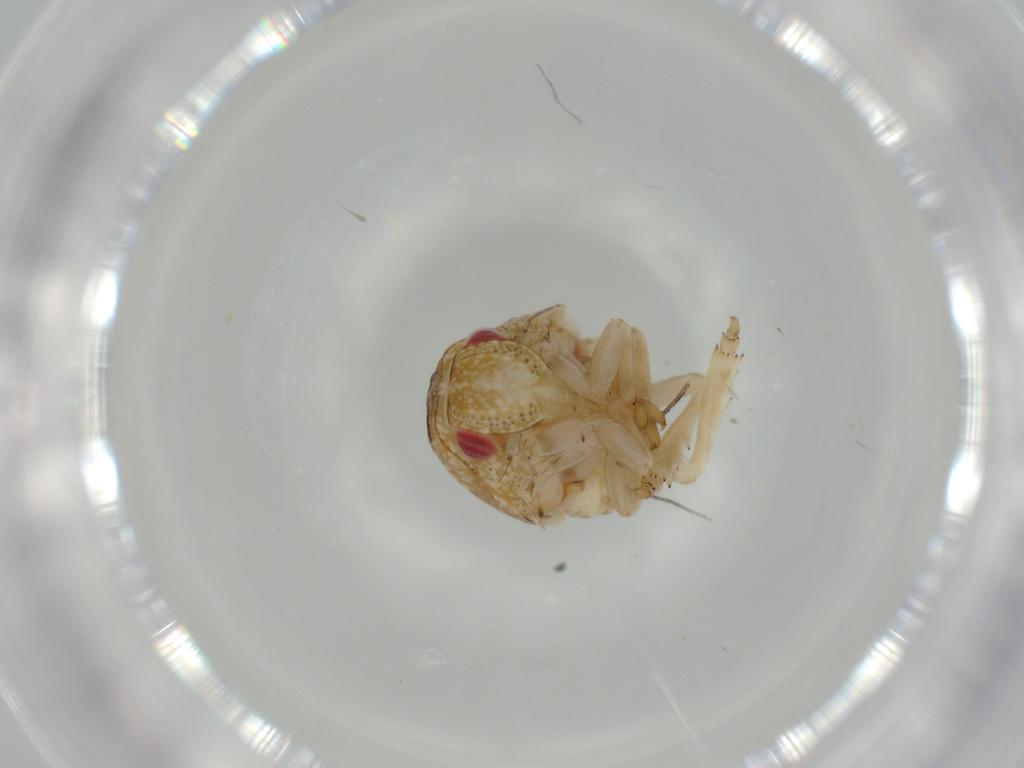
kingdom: Animalia
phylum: Arthropoda
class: Insecta
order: Hemiptera
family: Acanaloniidae
